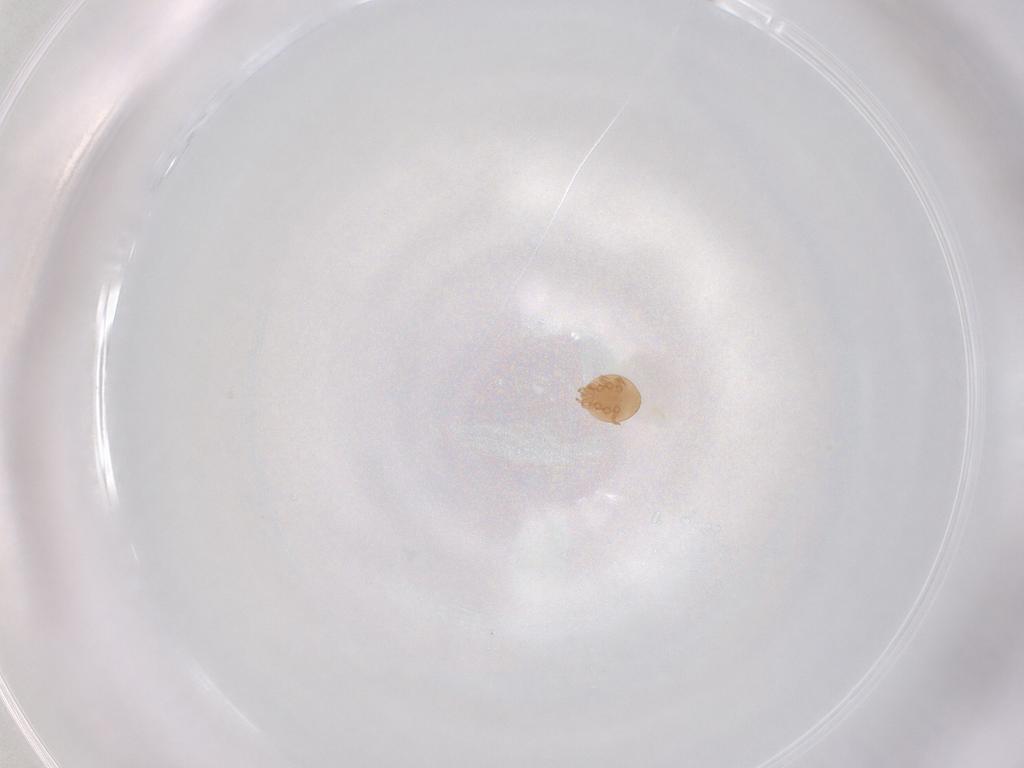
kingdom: Animalia
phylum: Arthropoda
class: Arachnida
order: Mesostigmata
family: Trematuridae
